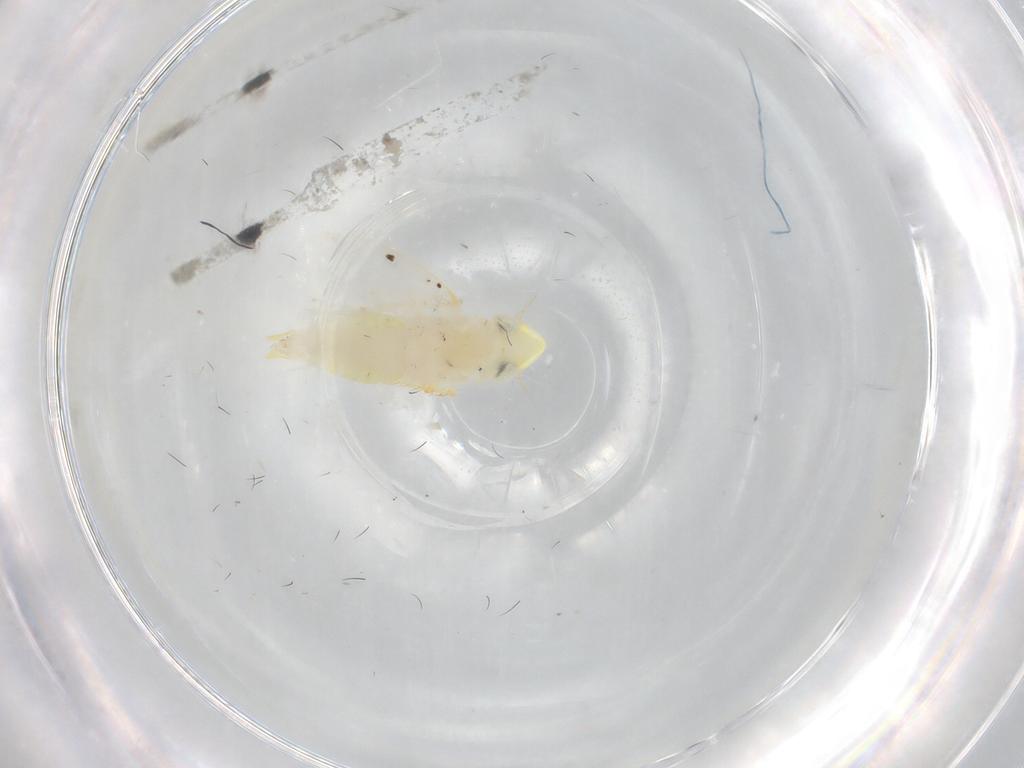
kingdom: Animalia
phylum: Arthropoda
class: Insecta
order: Hemiptera
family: Cicadellidae
